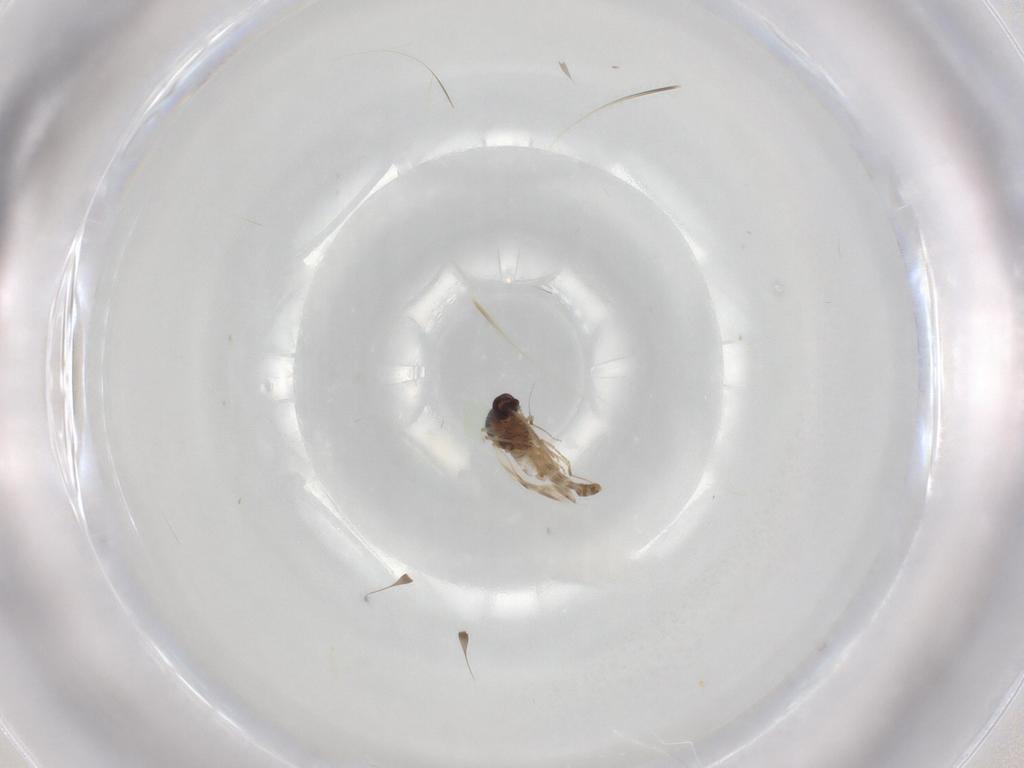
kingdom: Animalia
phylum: Arthropoda
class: Insecta
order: Diptera
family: Ceratopogonidae
